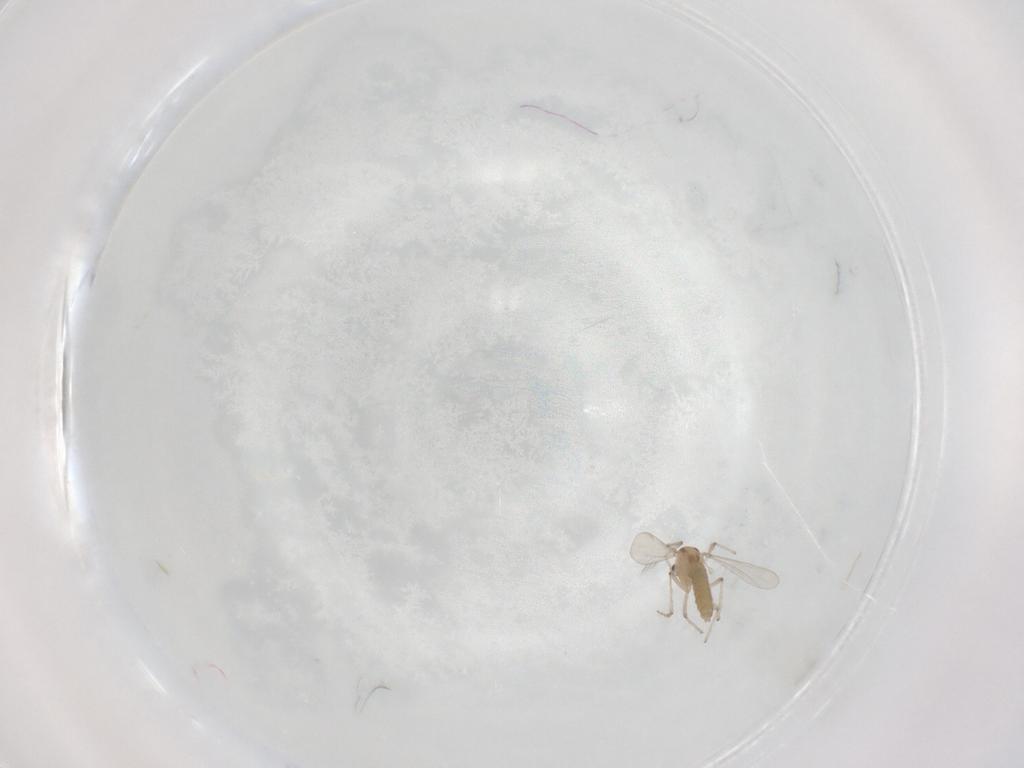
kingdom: Animalia
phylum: Arthropoda
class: Insecta
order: Diptera
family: Chironomidae
